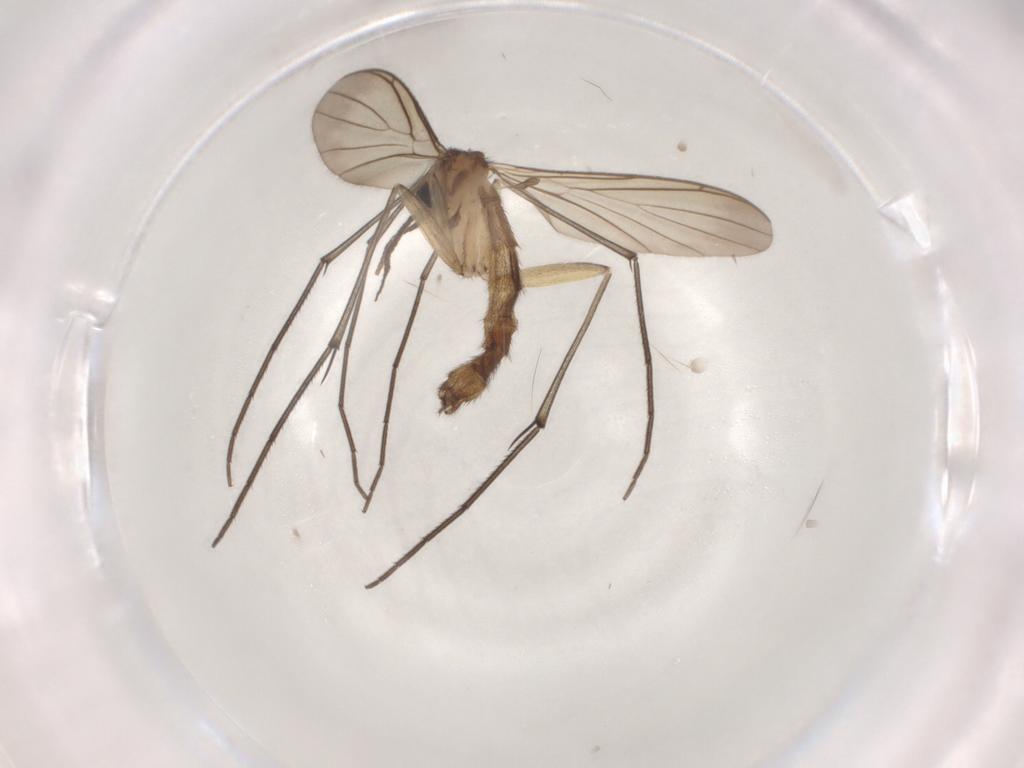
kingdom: Animalia
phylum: Arthropoda
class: Insecta
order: Diptera
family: Keroplatidae
